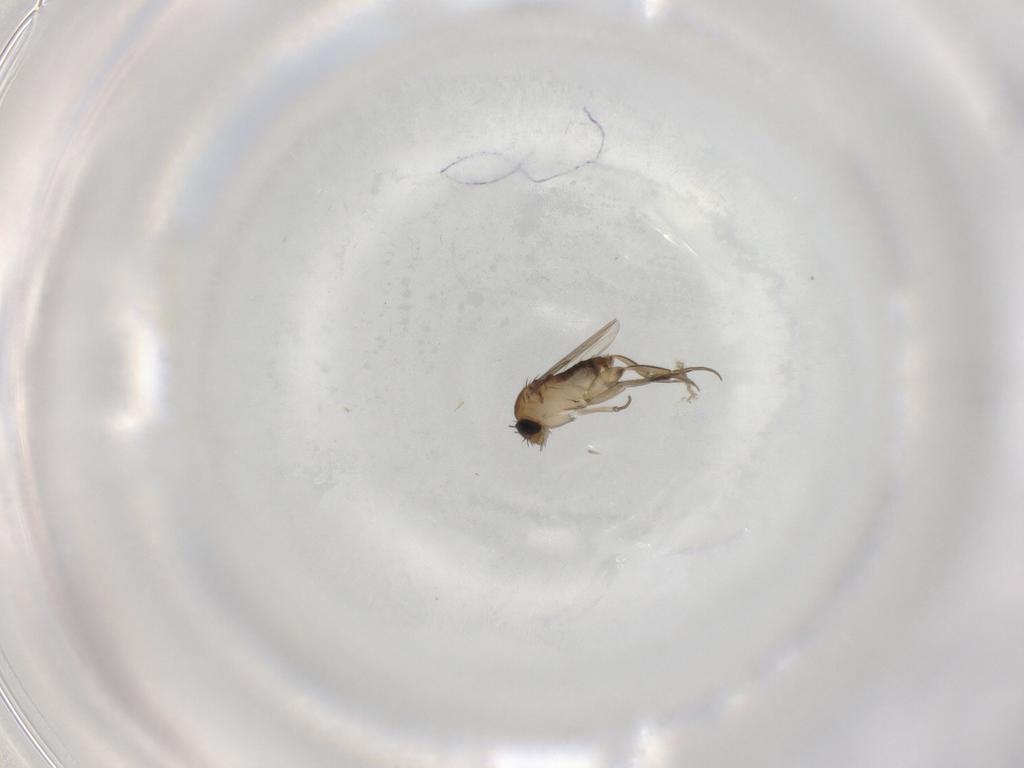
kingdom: Animalia
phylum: Arthropoda
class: Insecta
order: Diptera
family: Phoridae
